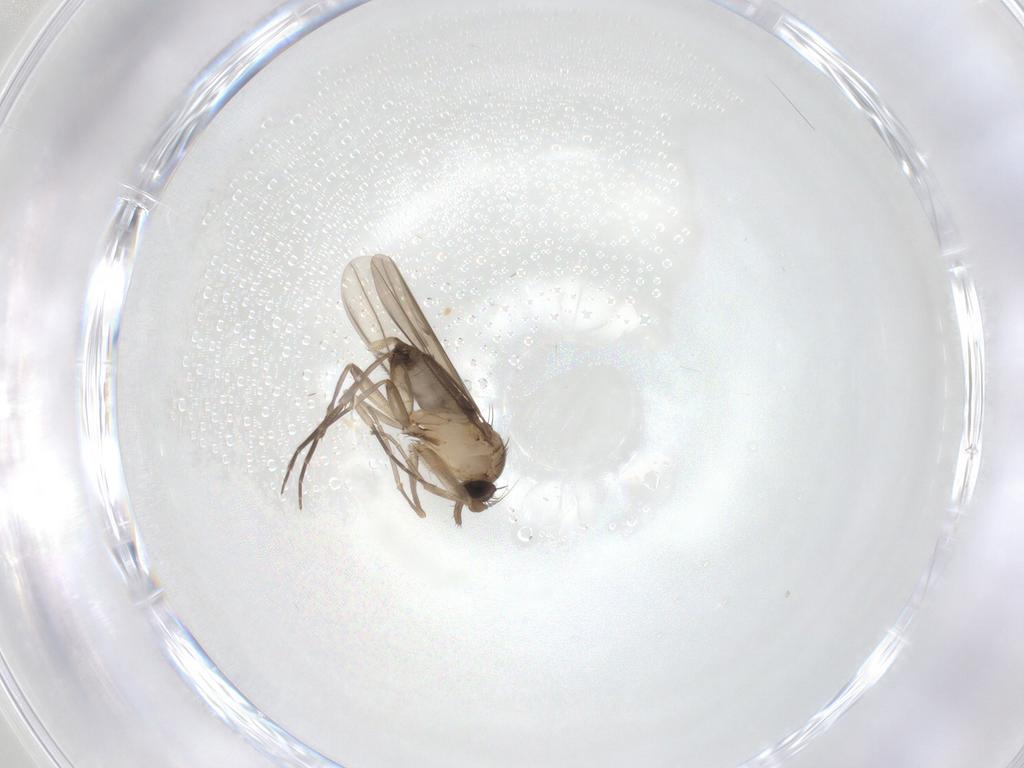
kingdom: Animalia
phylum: Arthropoda
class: Insecta
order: Diptera
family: Phoridae
